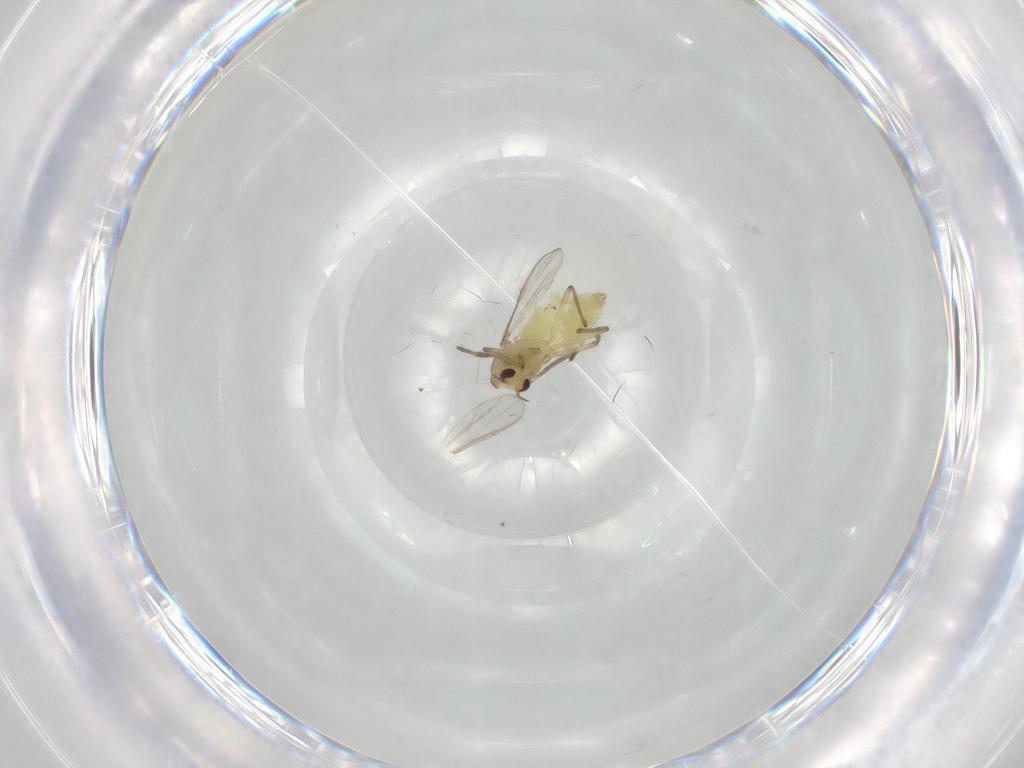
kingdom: Animalia
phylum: Arthropoda
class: Insecta
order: Diptera
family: Chironomidae
